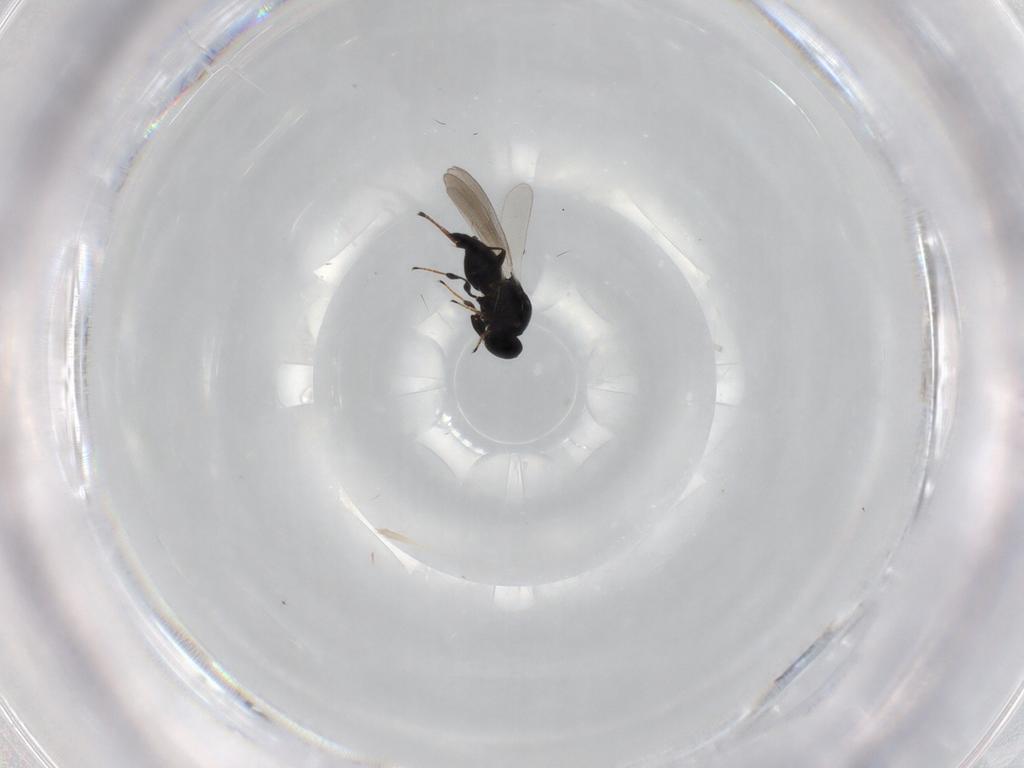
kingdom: Animalia
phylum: Arthropoda
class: Insecta
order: Hymenoptera
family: Platygastridae
